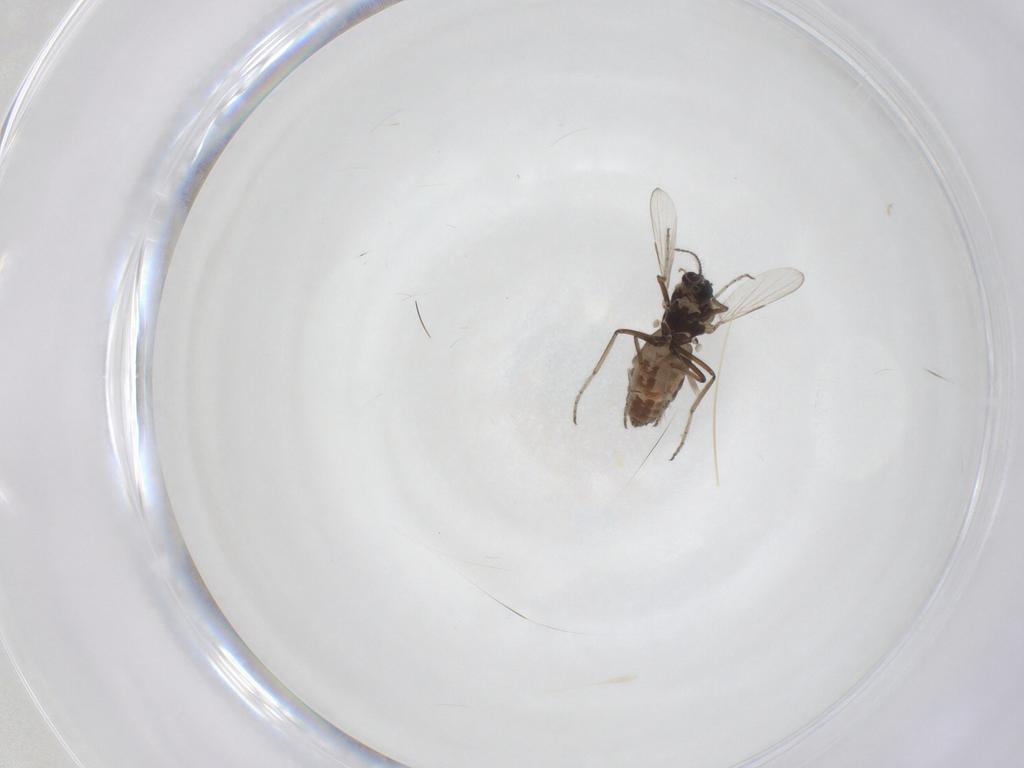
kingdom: Animalia
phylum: Arthropoda
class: Insecta
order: Diptera
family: Ceratopogonidae
